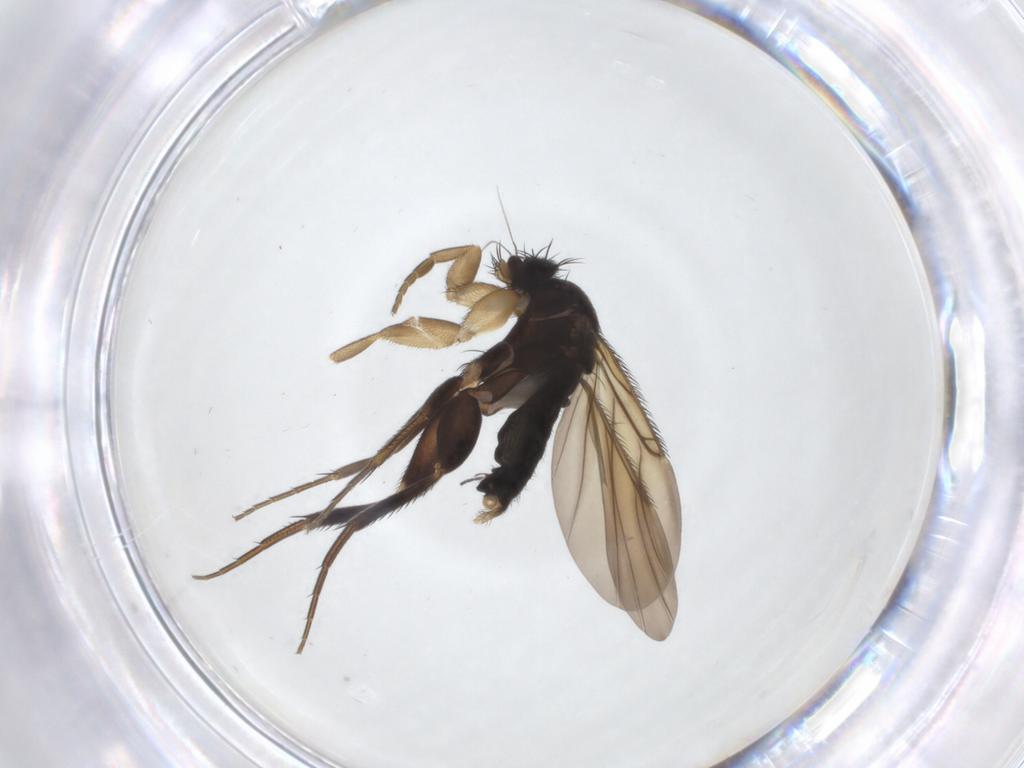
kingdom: Animalia
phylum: Arthropoda
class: Insecta
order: Diptera
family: Phoridae
